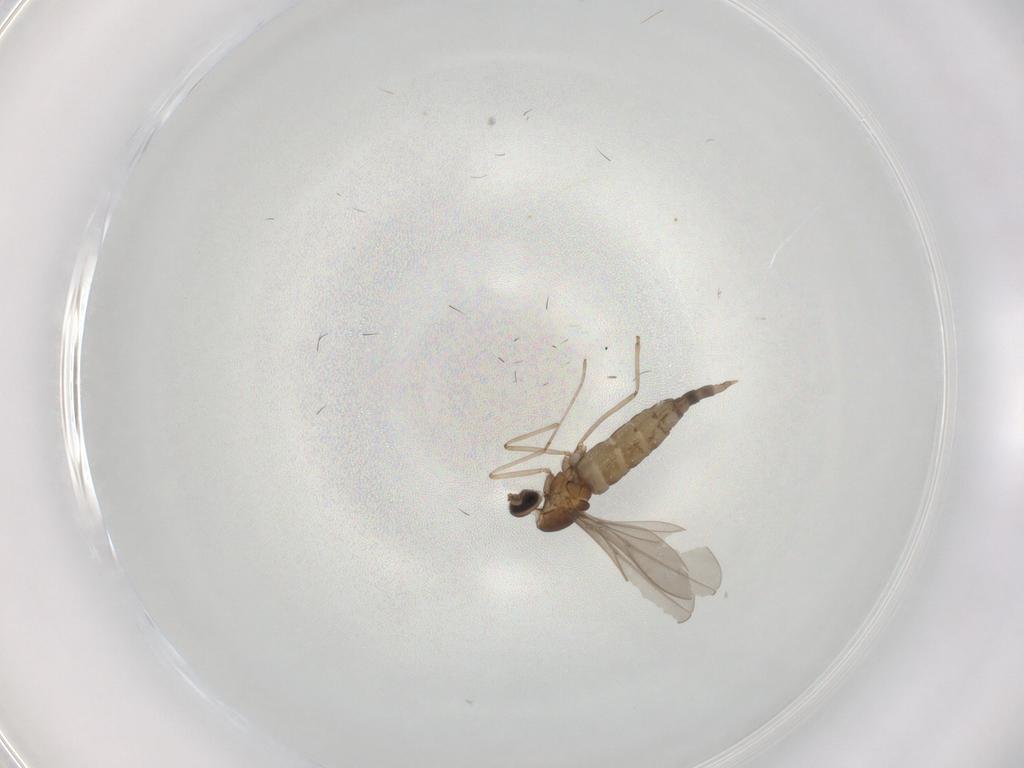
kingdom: Animalia
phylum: Arthropoda
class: Insecta
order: Diptera
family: Cecidomyiidae
